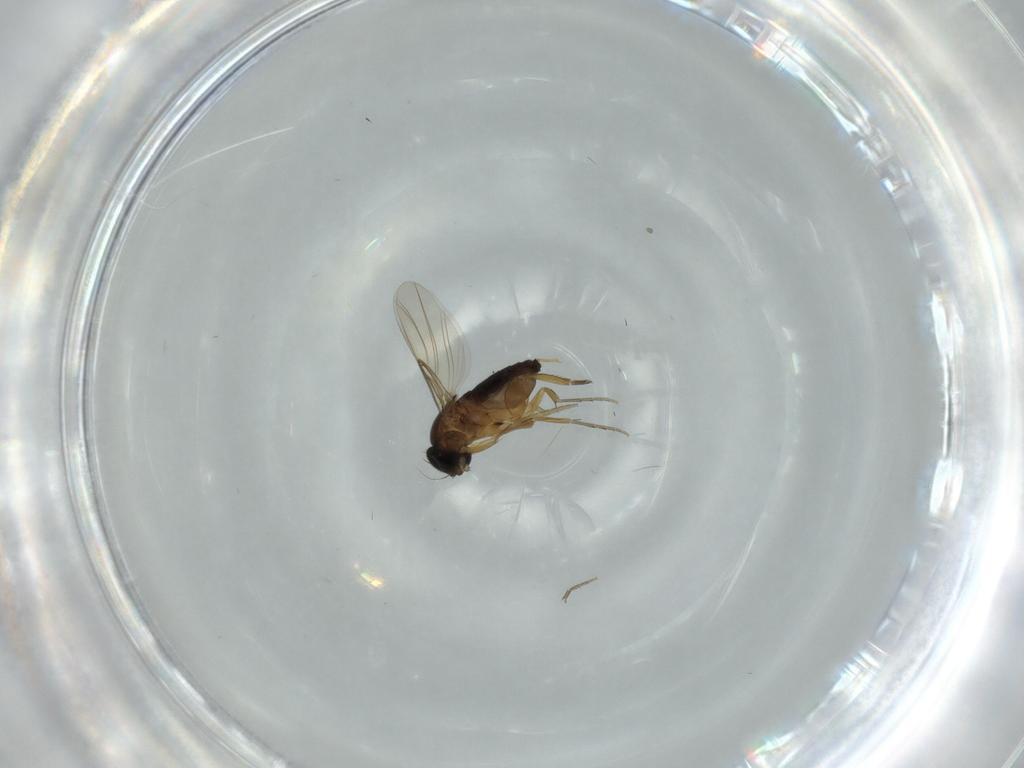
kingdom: Animalia
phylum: Arthropoda
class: Insecta
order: Diptera
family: Phoridae
